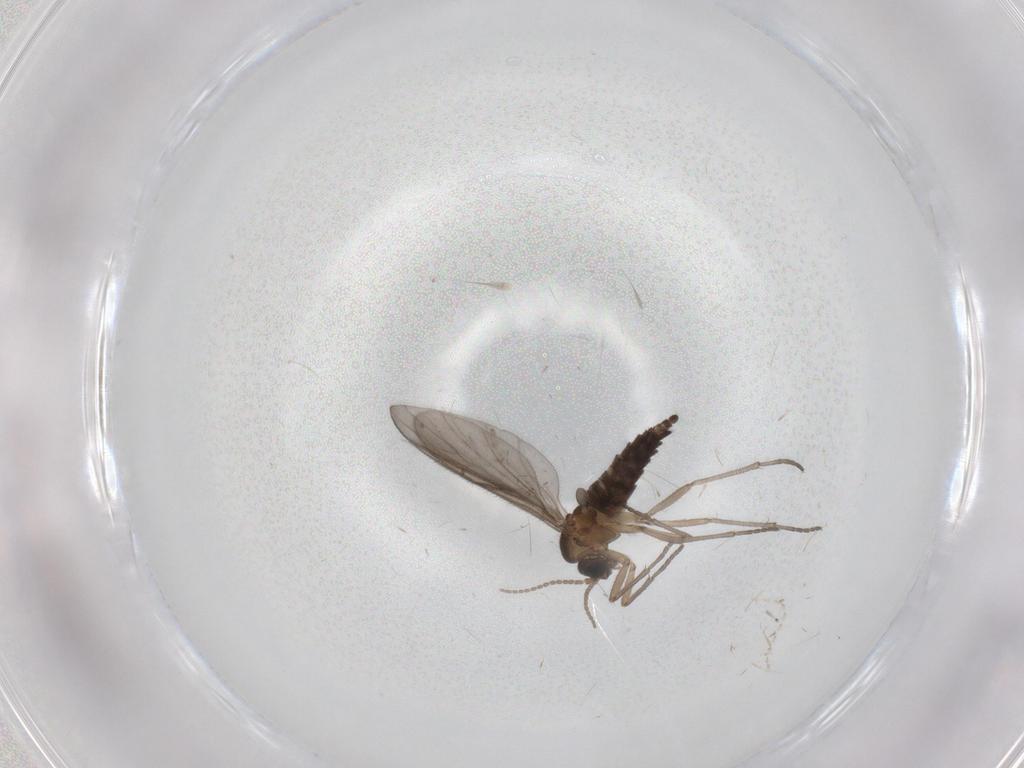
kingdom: Animalia
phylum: Arthropoda
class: Insecta
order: Diptera
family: Sciaridae
